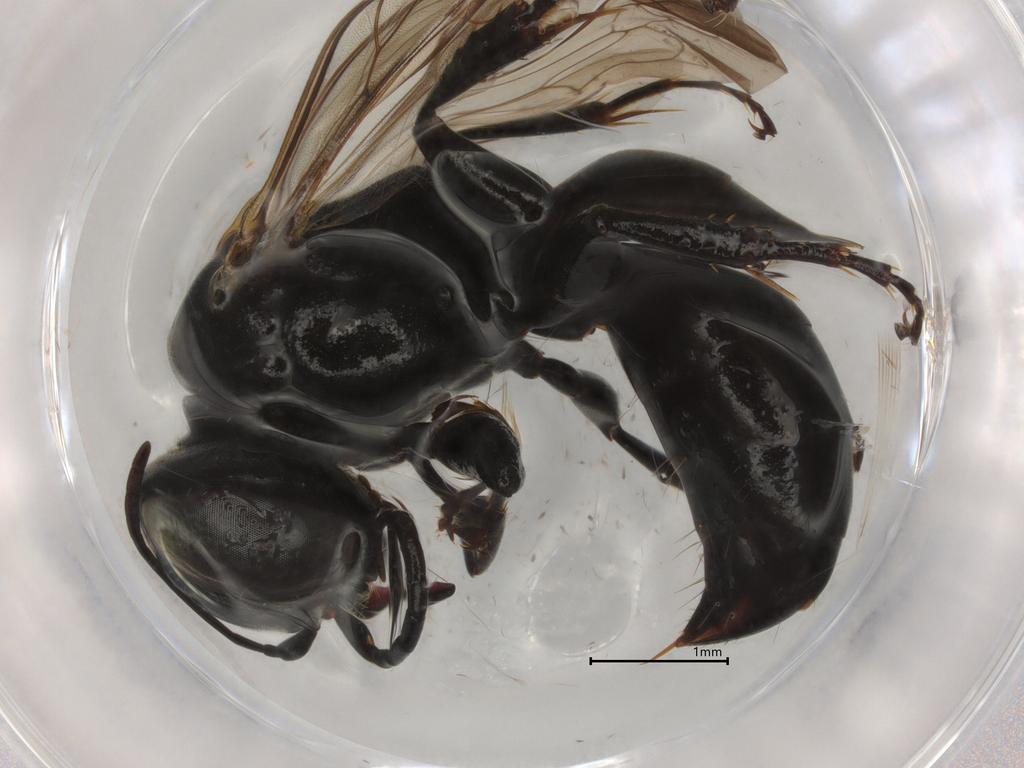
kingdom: Animalia
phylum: Arthropoda
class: Insecta
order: Hymenoptera
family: Crabronidae
